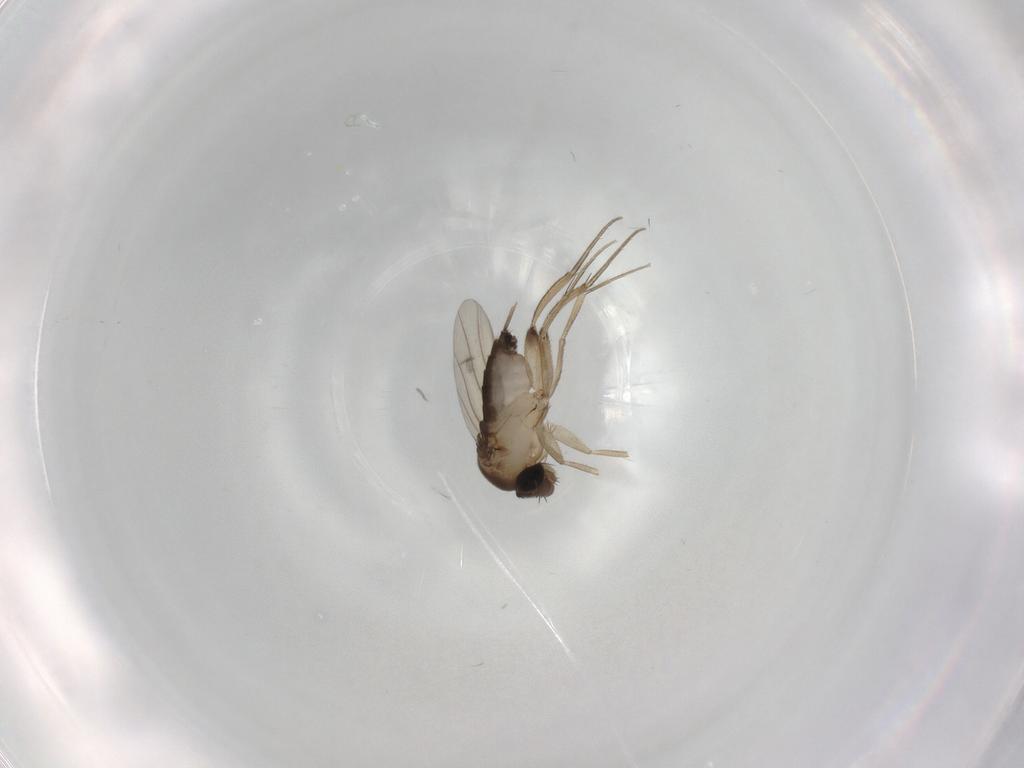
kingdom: Animalia
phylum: Arthropoda
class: Insecta
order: Diptera
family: Phoridae
